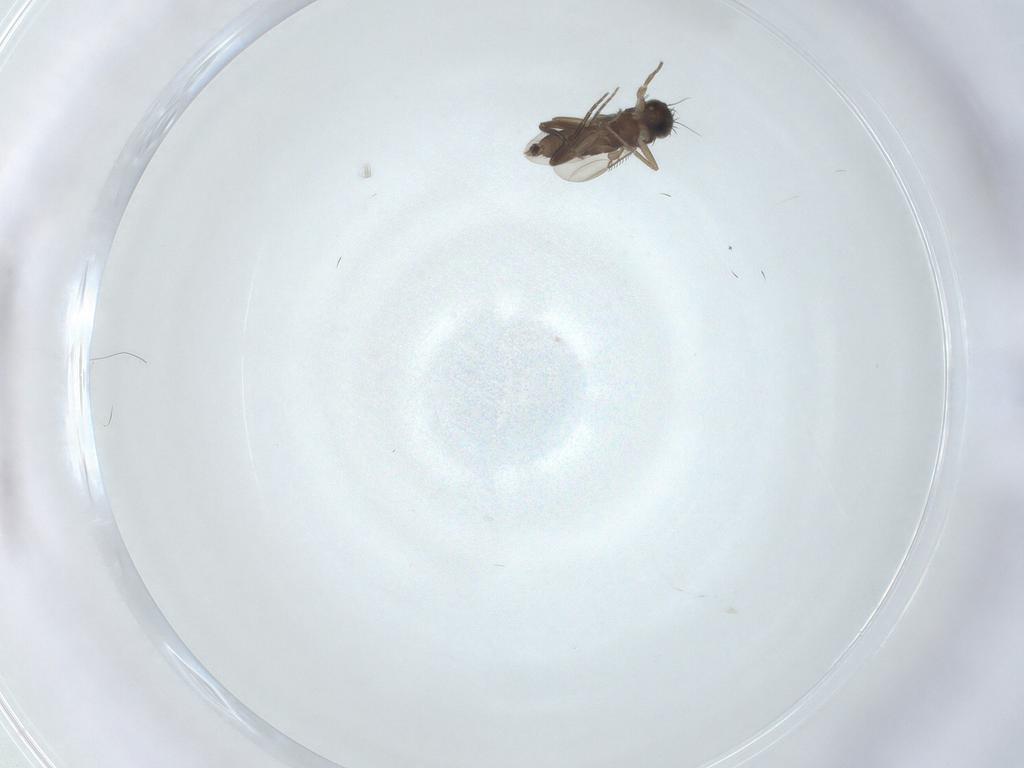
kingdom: Animalia
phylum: Arthropoda
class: Insecta
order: Diptera
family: Phoridae
